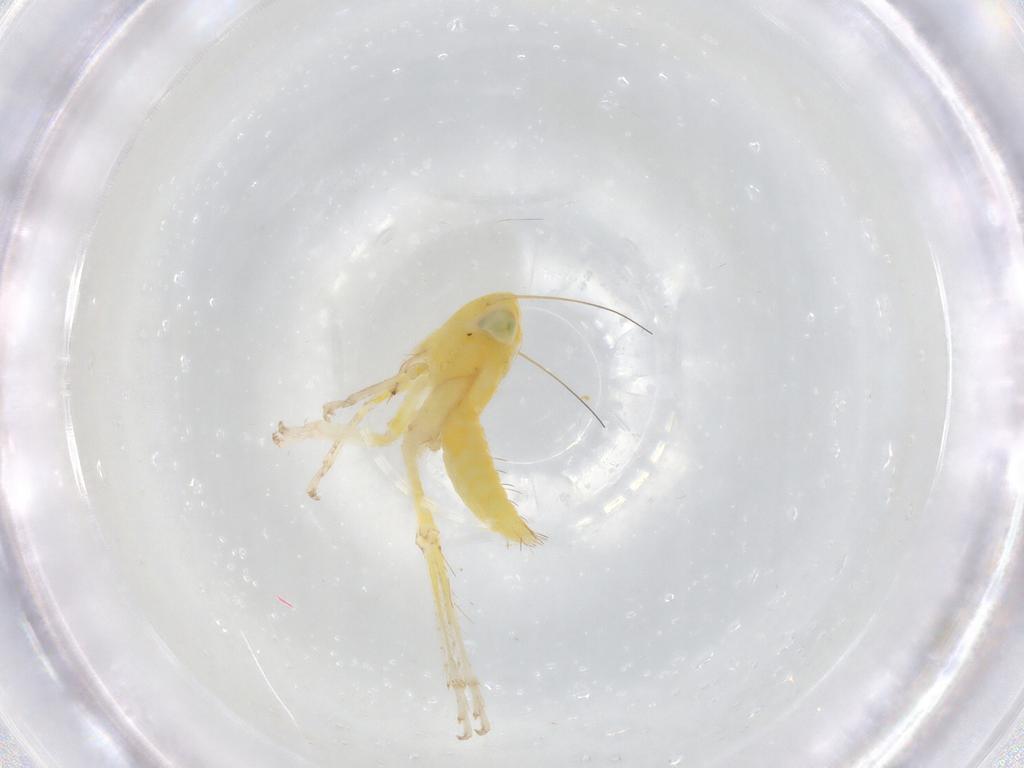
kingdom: Animalia
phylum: Arthropoda
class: Insecta
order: Hemiptera
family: Cicadellidae
